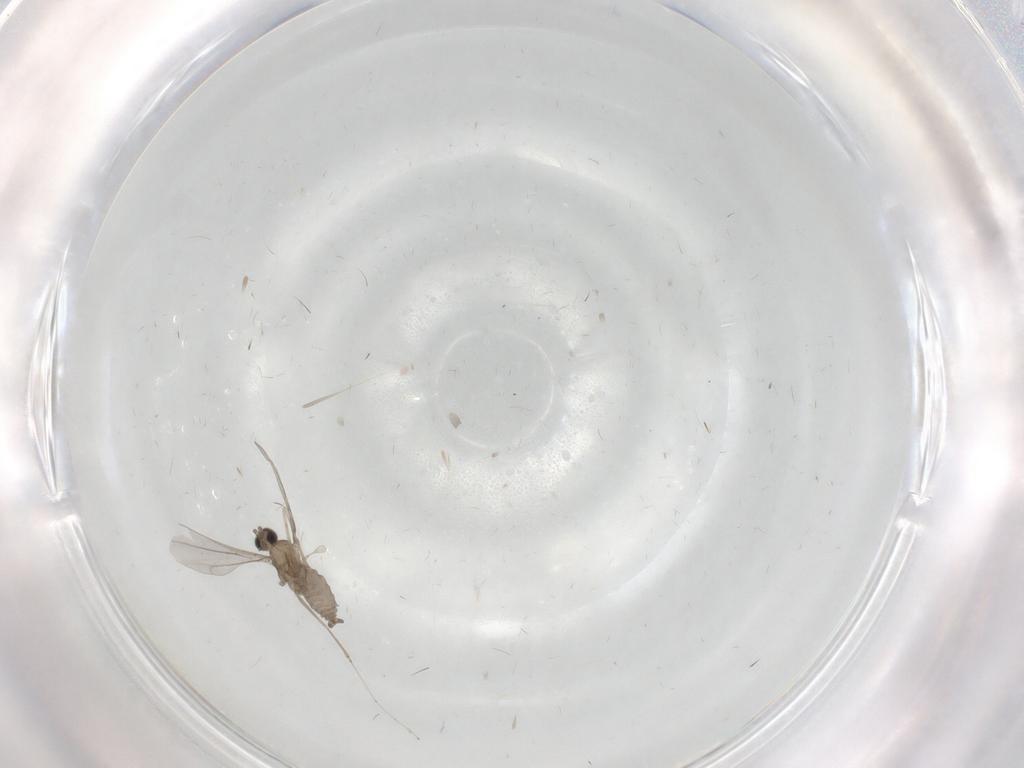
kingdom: Animalia
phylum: Arthropoda
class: Insecta
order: Diptera
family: Cecidomyiidae
